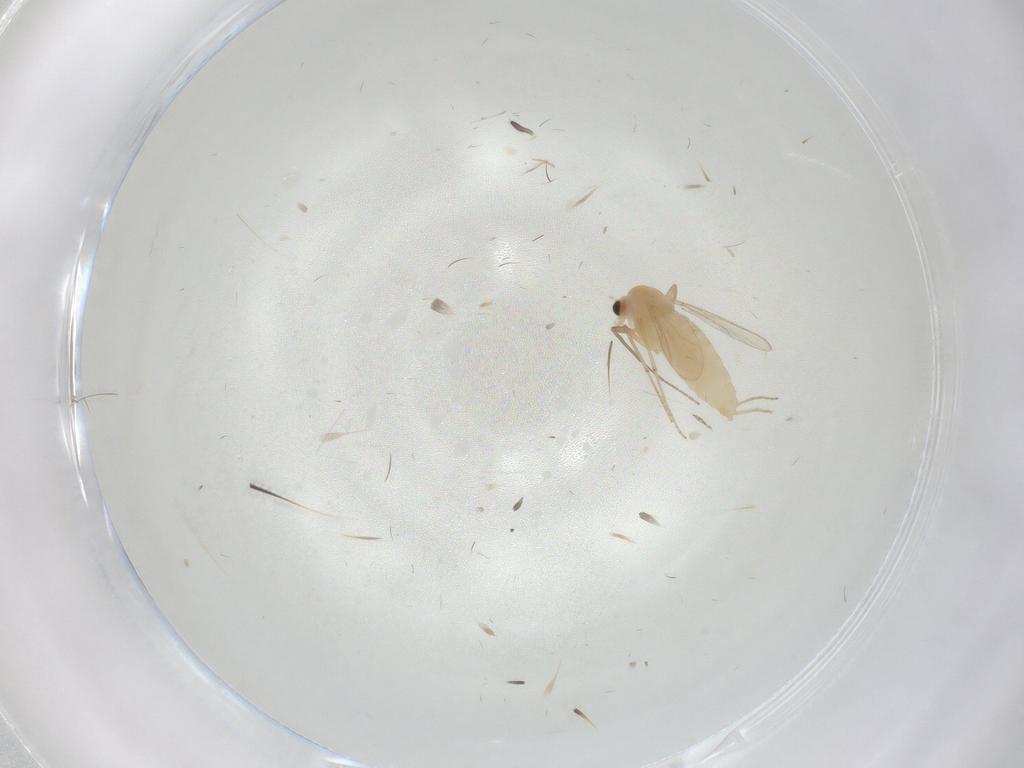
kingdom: Animalia
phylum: Arthropoda
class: Insecta
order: Diptera
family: Chironomidae
